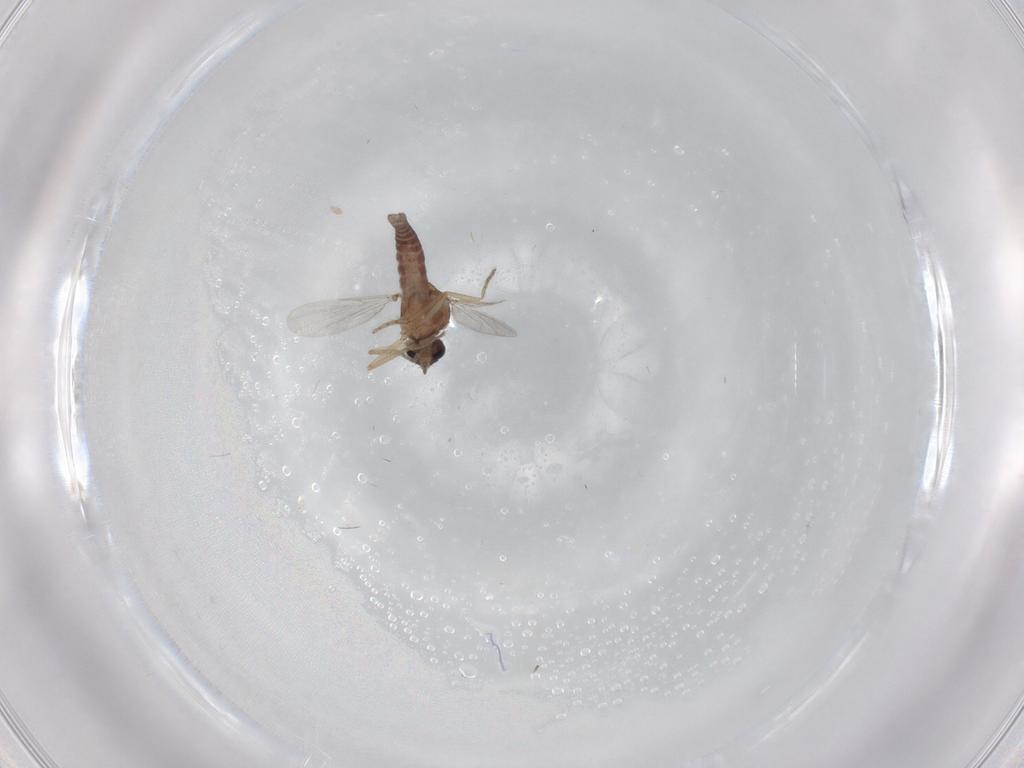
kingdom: Animalia
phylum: Arthropoda
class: Insecta
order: Diptera
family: Ceratopogonidae
